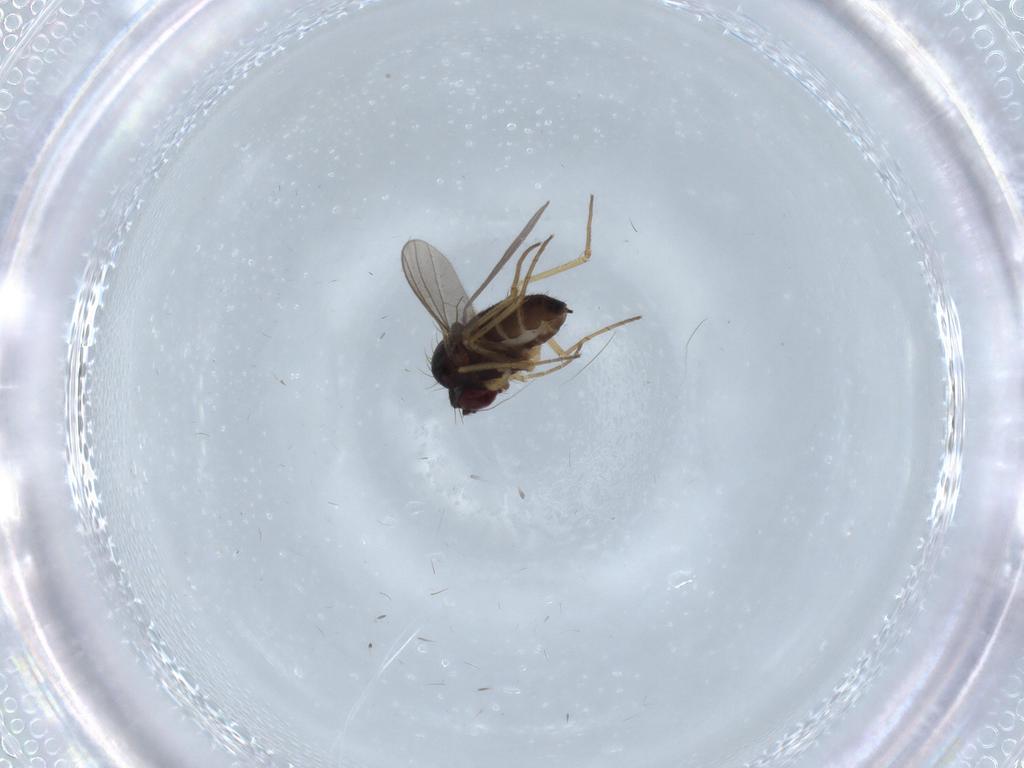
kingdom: Animalia
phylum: Arthropoda
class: Insecta
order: Diptera
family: Dolichopodidae
